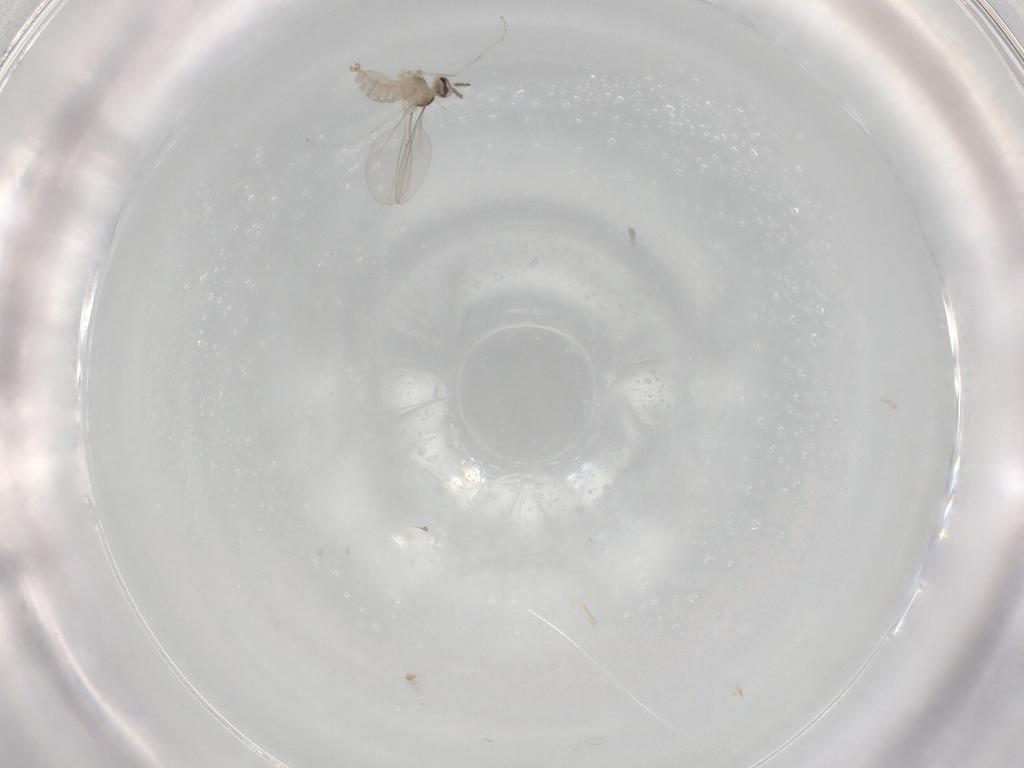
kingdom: Animalia
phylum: Arthropoda
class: Insecta
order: Diptera
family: Cecidomyiidae
